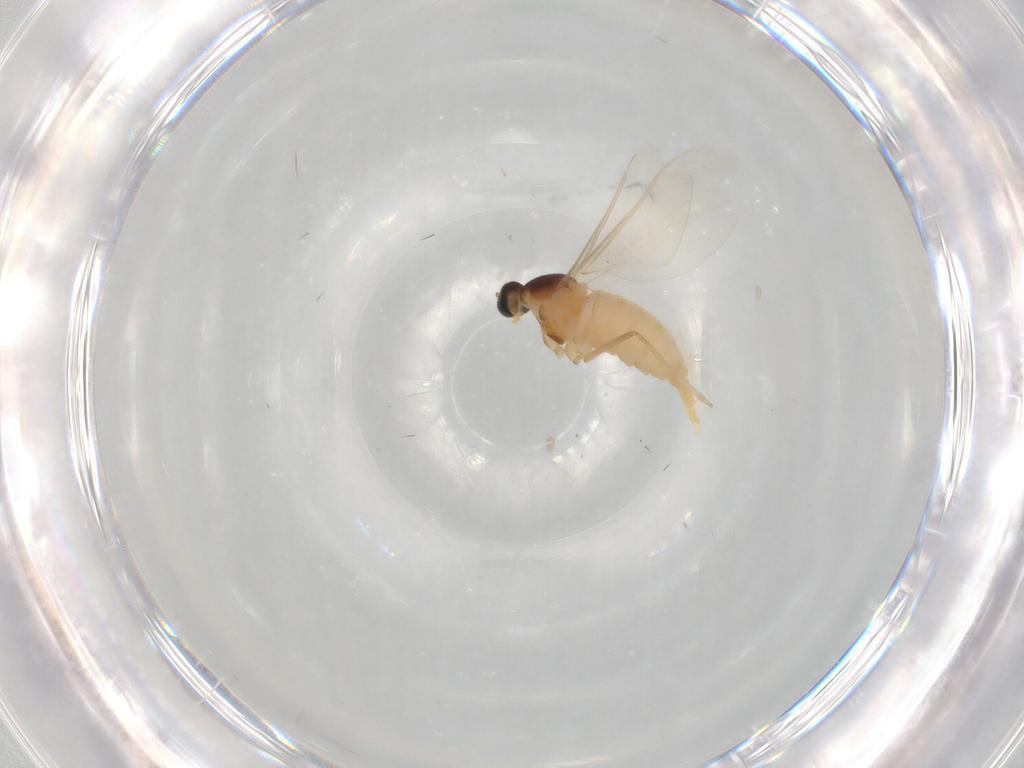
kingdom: Animalia
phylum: Arthropoda
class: Insecta
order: Diptera
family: Cecidomyiidae
